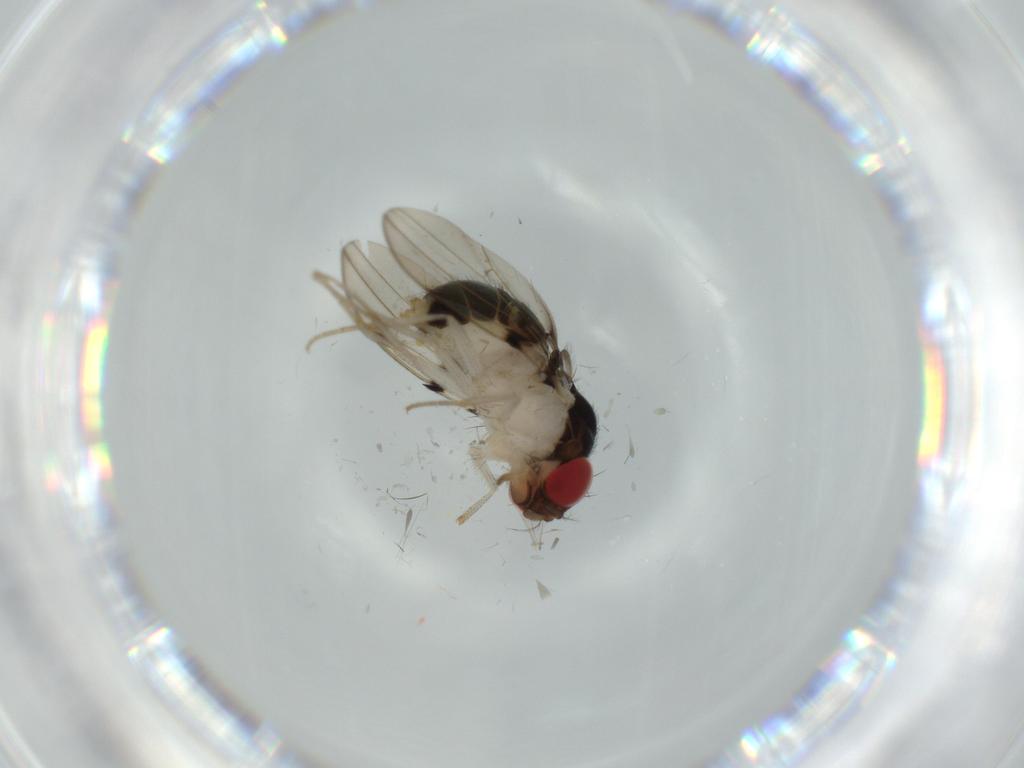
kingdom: Animalia
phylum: Arthropoda
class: Insecta
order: Diptera
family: Drosophilidae
